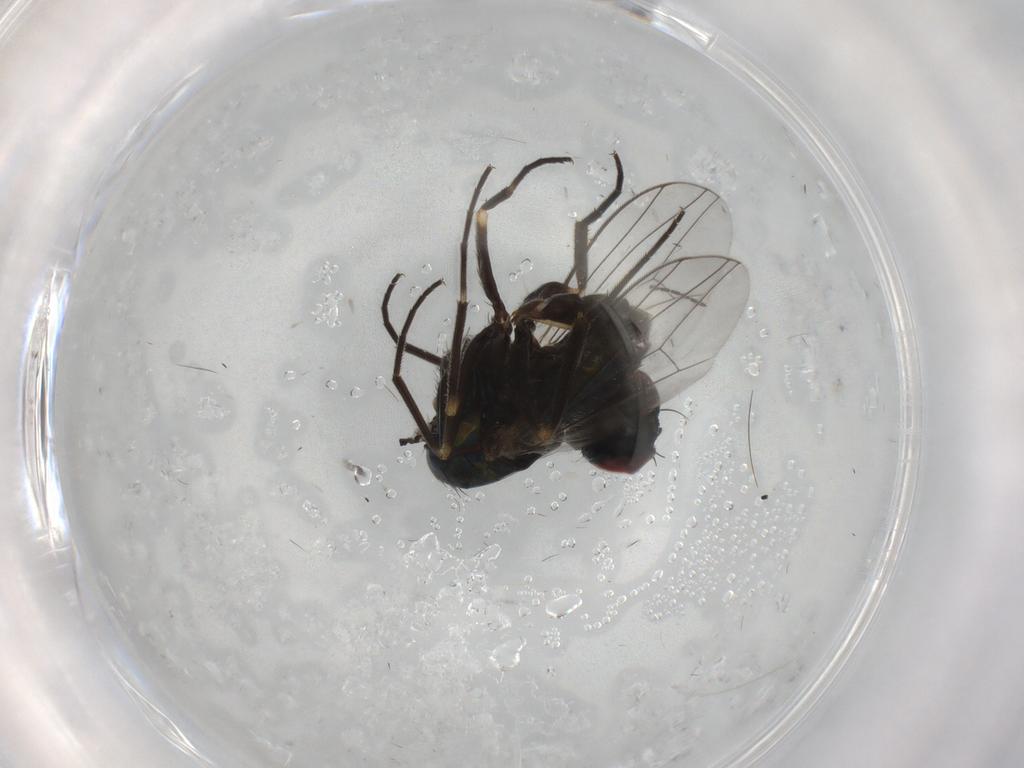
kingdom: Animalia
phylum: Arthropoda
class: Insecta
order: Diptera
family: Dolichopodidae
